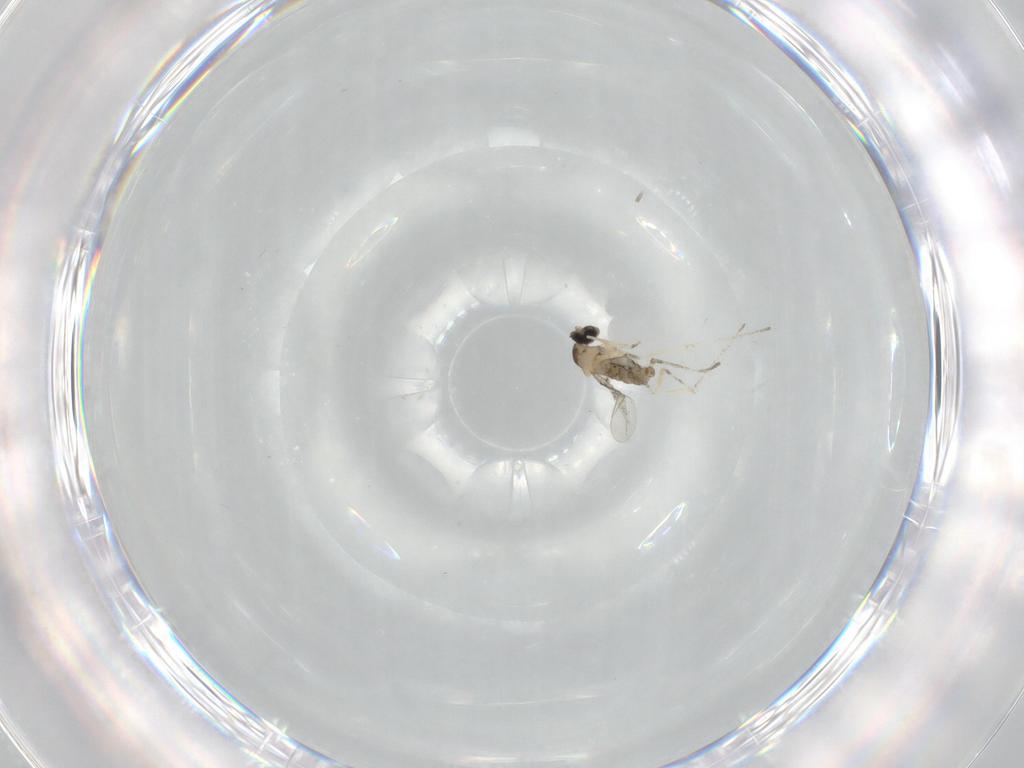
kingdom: Animalia
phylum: Arthropoda
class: Insecta
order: Diptera
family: Cecidomyiidae
